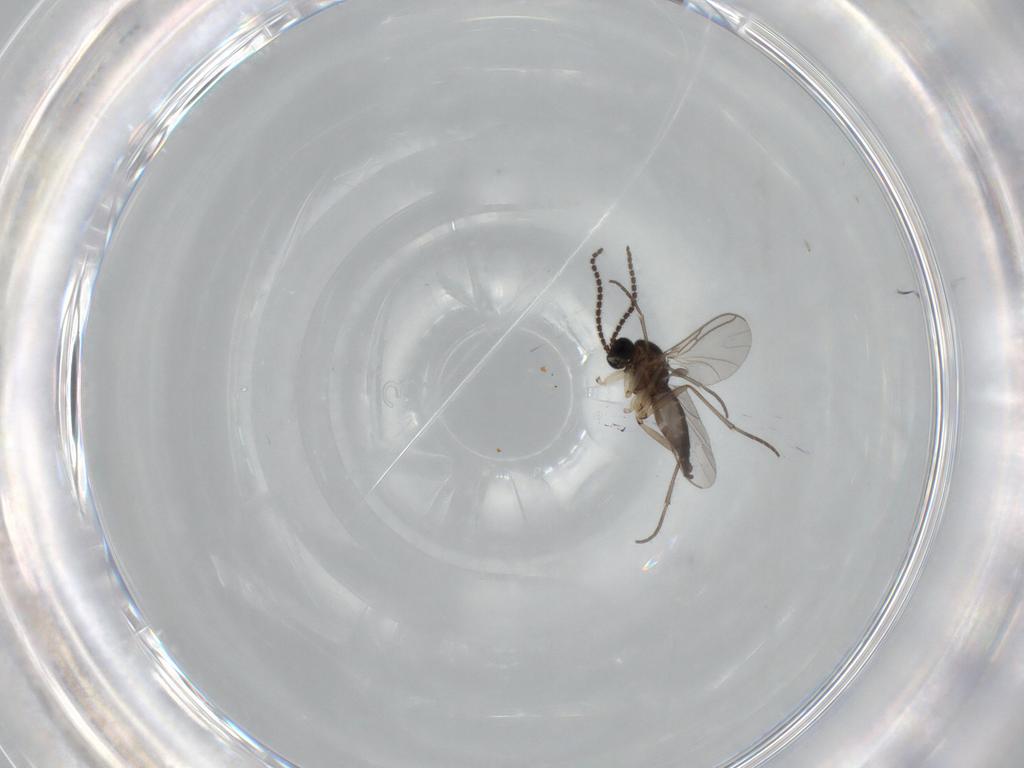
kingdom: Animalia
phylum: Arthropoda
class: Insecta
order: Diptera
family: Sciaridae
